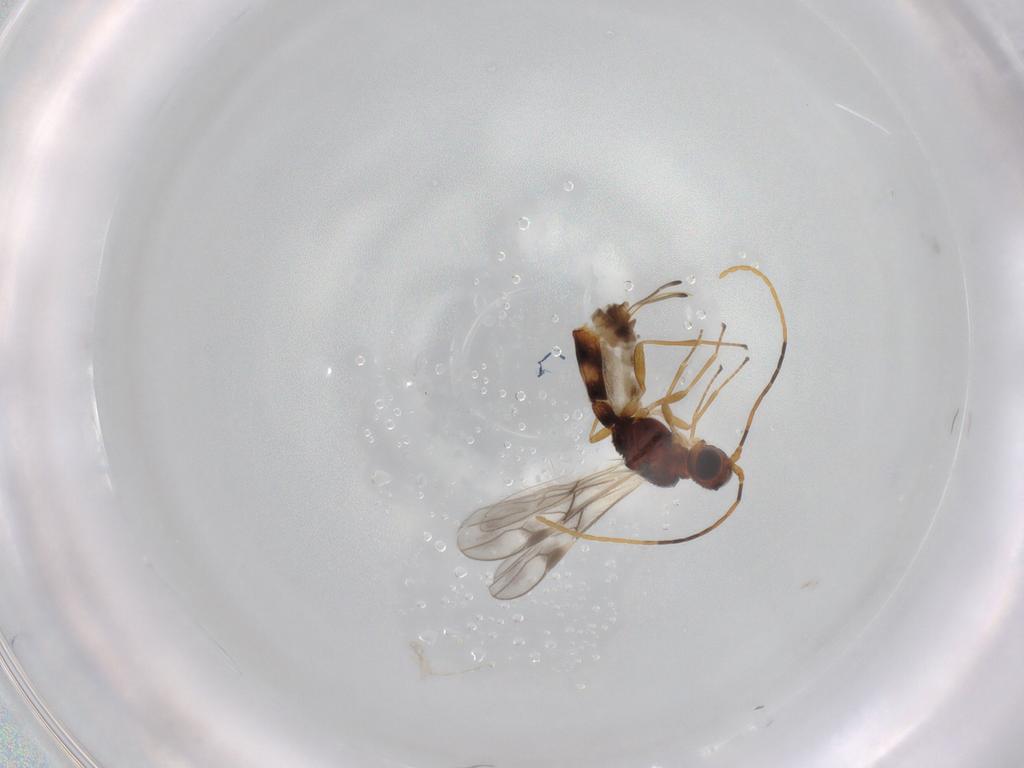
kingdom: Animalia
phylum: Arthropoda
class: Insecta
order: Hymenoptera
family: Braconidae
